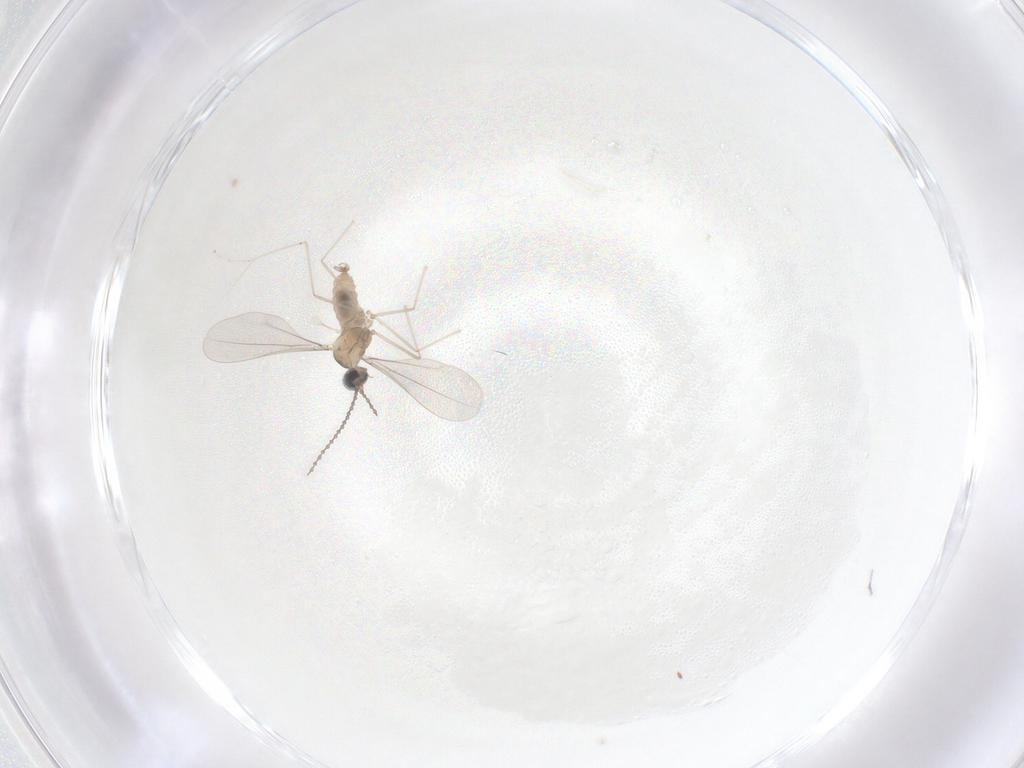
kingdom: Animalia
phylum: Arthropoda
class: Insecta
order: Diptera
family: Cecidomyiidae
